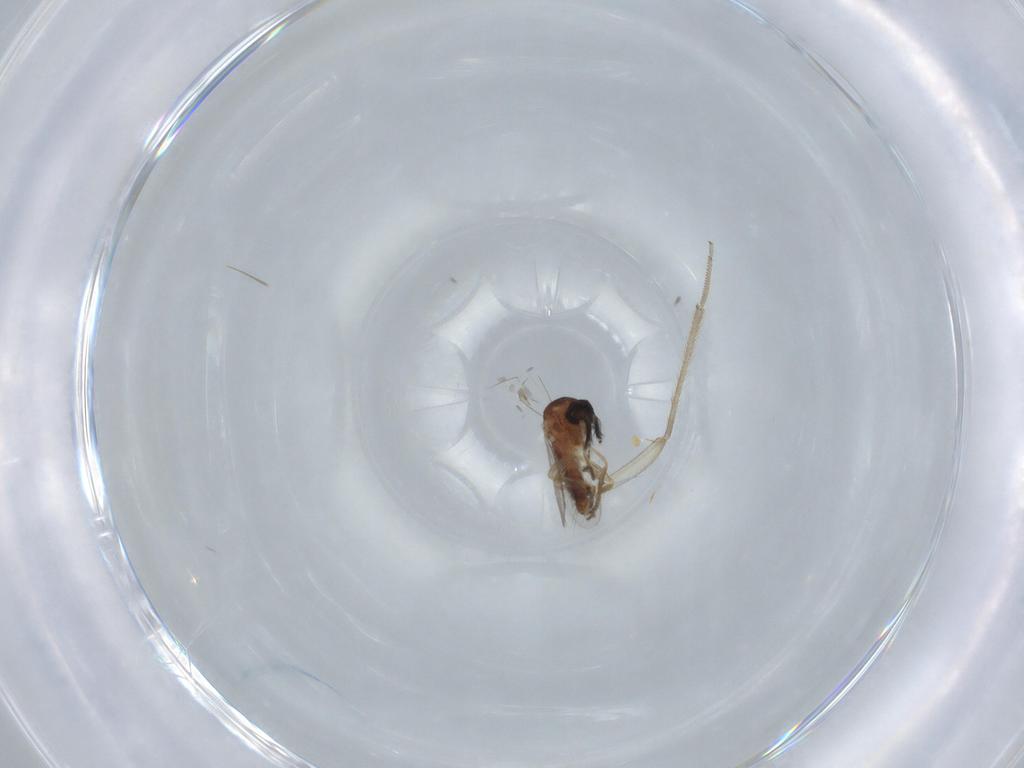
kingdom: Animalia
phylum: Arthropoda
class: Insecta
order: Diptera
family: Ceratopogonidae
